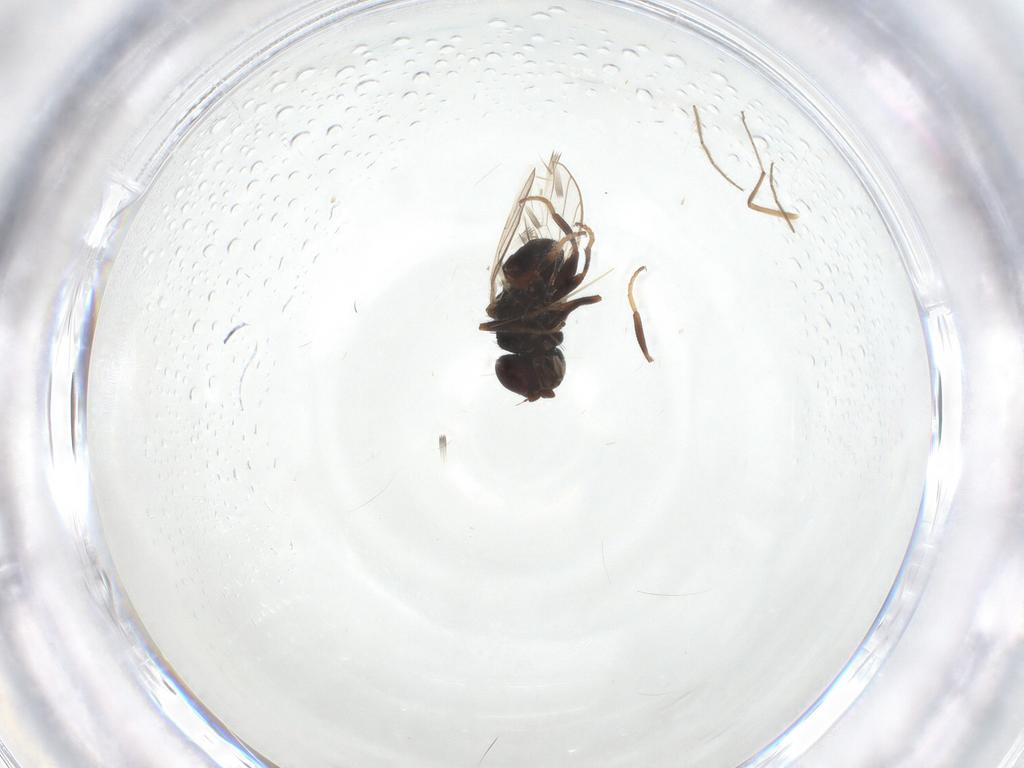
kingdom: Animalia
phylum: Arthropoda
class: Insecta
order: Diptera
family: Chloropidae
